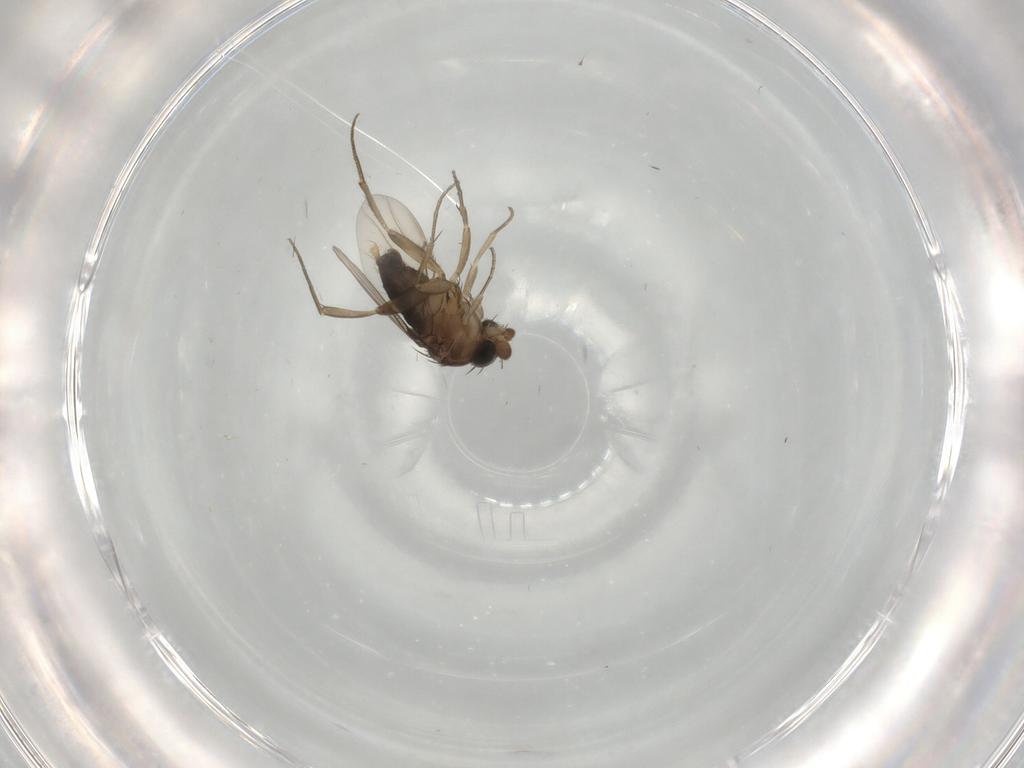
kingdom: Animalia
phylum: Arthropoda
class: Insecta
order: Diptera
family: Phoridae
